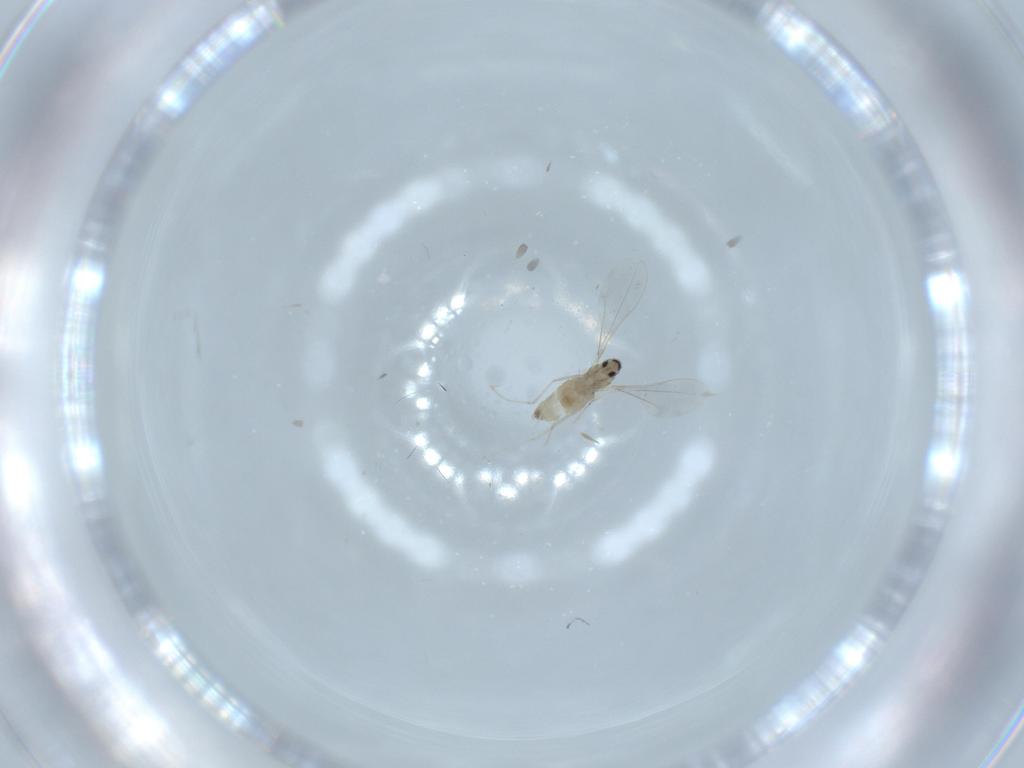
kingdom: Animalia
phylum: Arthropoda
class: Insecta
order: Diptera
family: Cecidomyiidae
